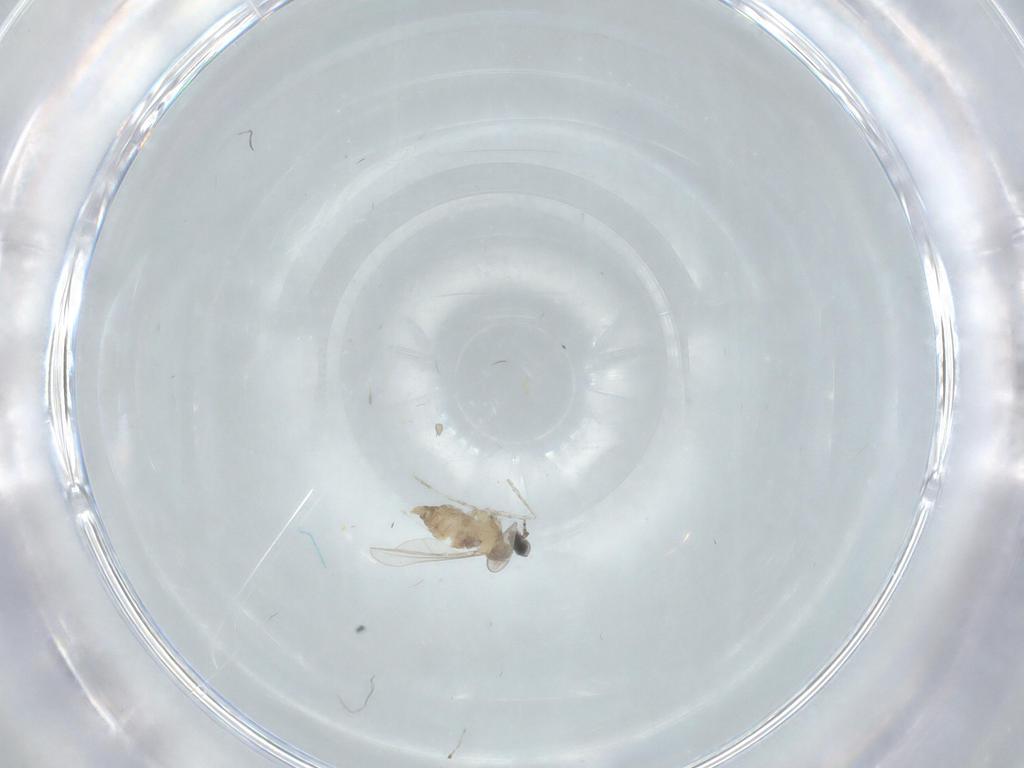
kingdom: Animalia
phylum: Arthropoda
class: Insecta
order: Diptera
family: Cecidomyiidae
